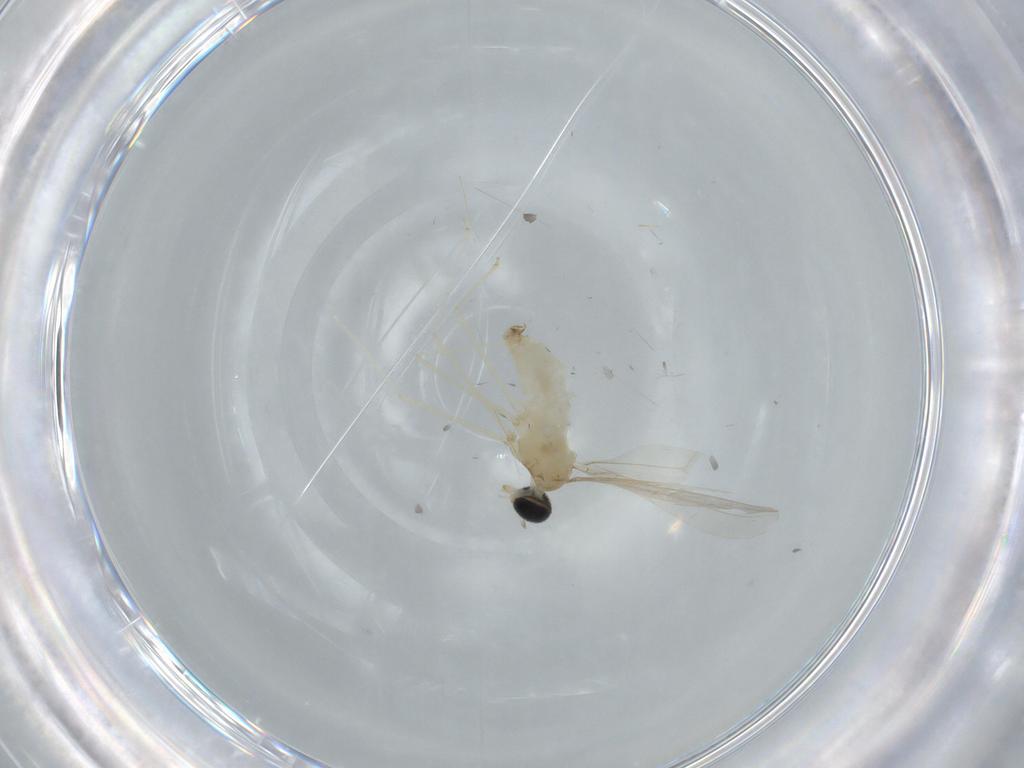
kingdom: Animalia
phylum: Arthropoda
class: Insecta
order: Diptera
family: Cecidomyiidae
